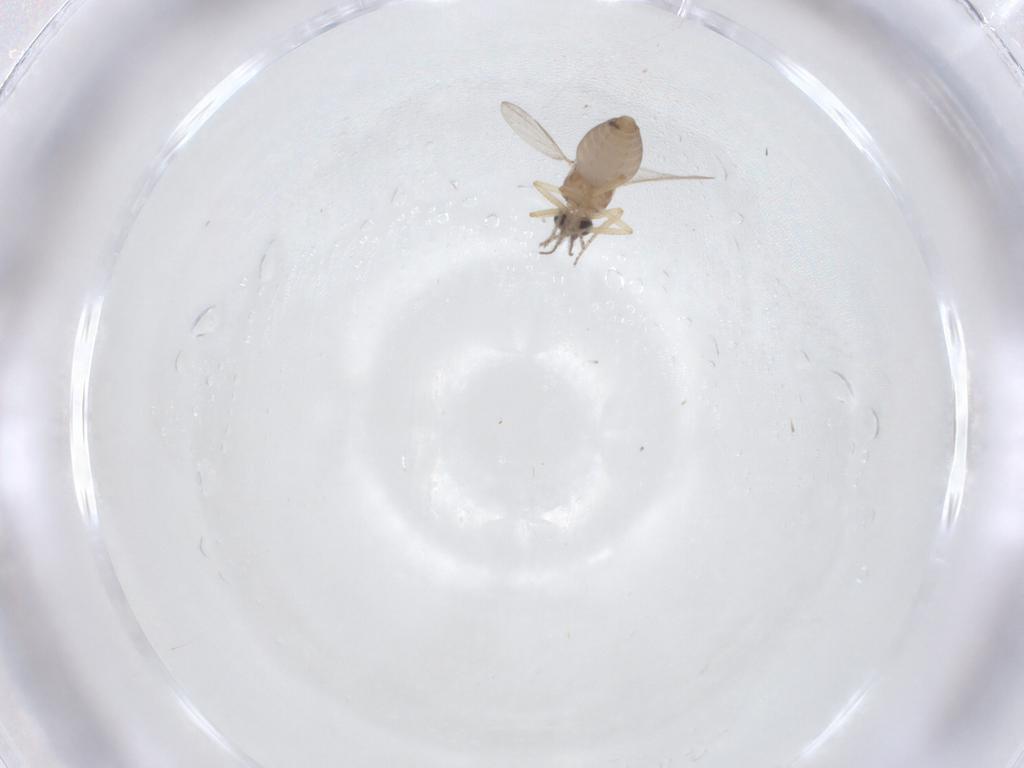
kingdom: Animalia
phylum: Arthropoda
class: Insecta
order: Diptera
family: Ceratopogonidae
